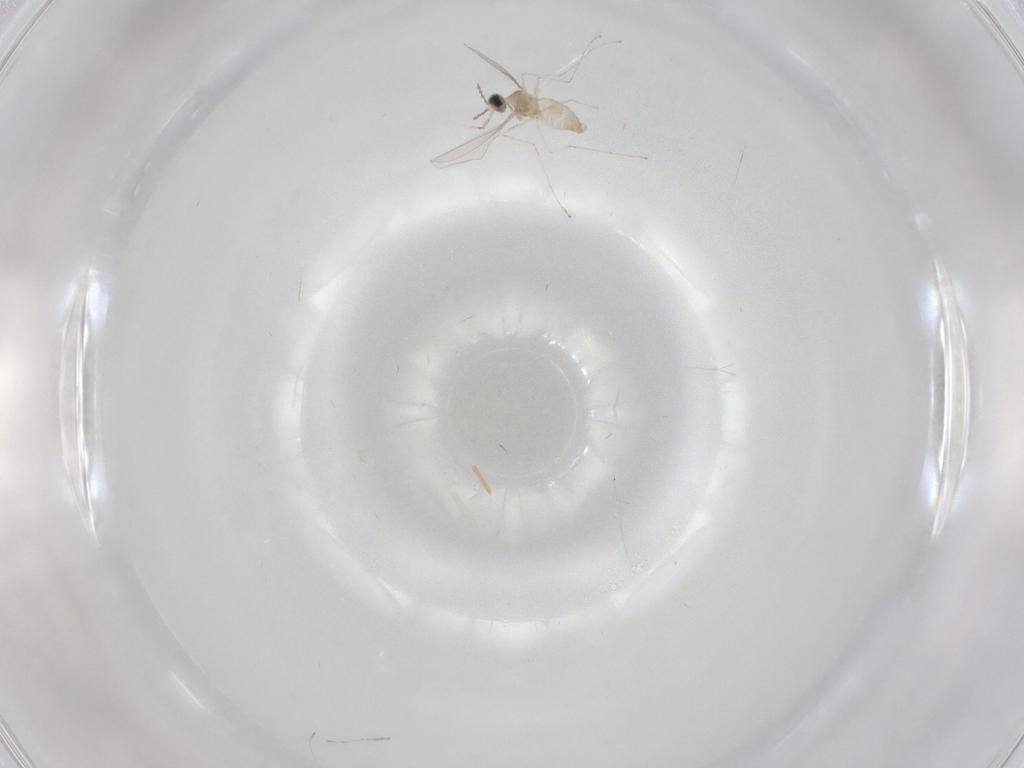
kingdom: Animalia
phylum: Arthropoda
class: Insecta
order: Diptera
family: Cecidomyiidae
